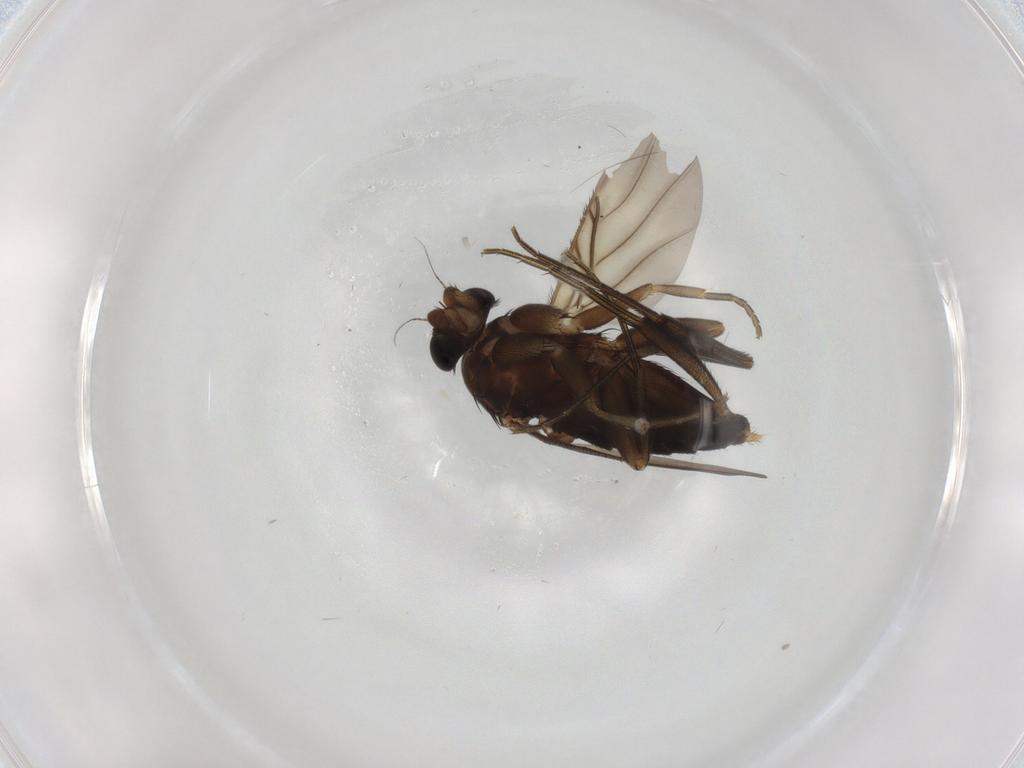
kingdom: Animalia
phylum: Arthropoda
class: Insecta
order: Diptera
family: Phoridae
